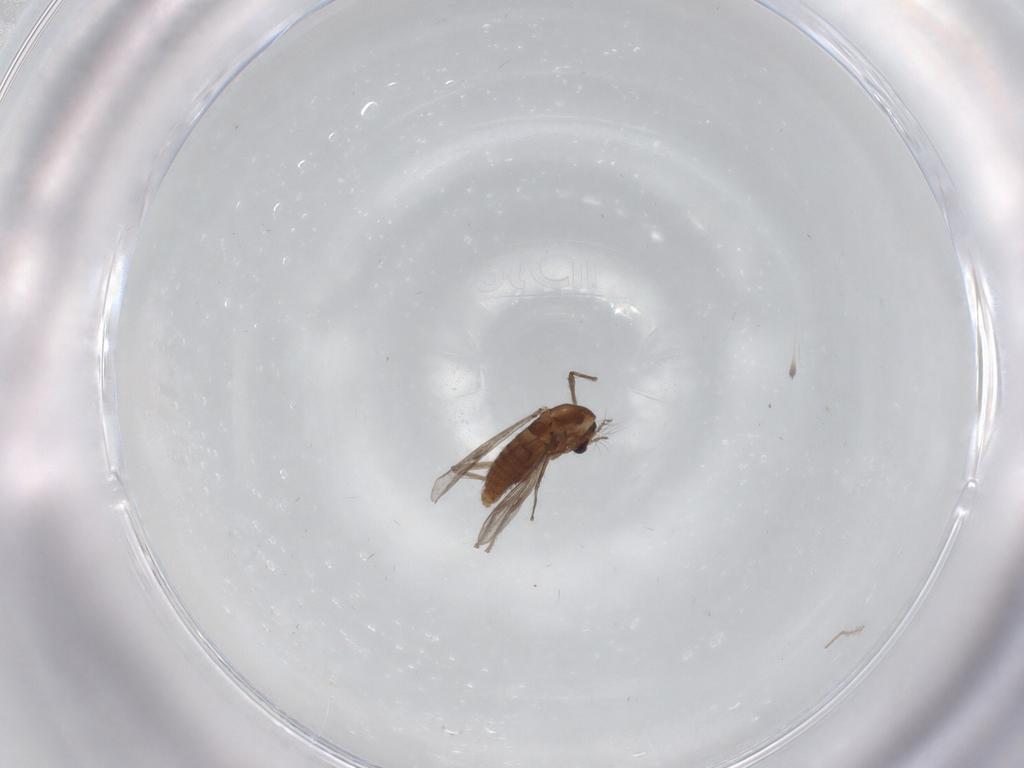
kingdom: Animalia
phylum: Arthropoda
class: Insecta
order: Diptera
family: Chironomidae
